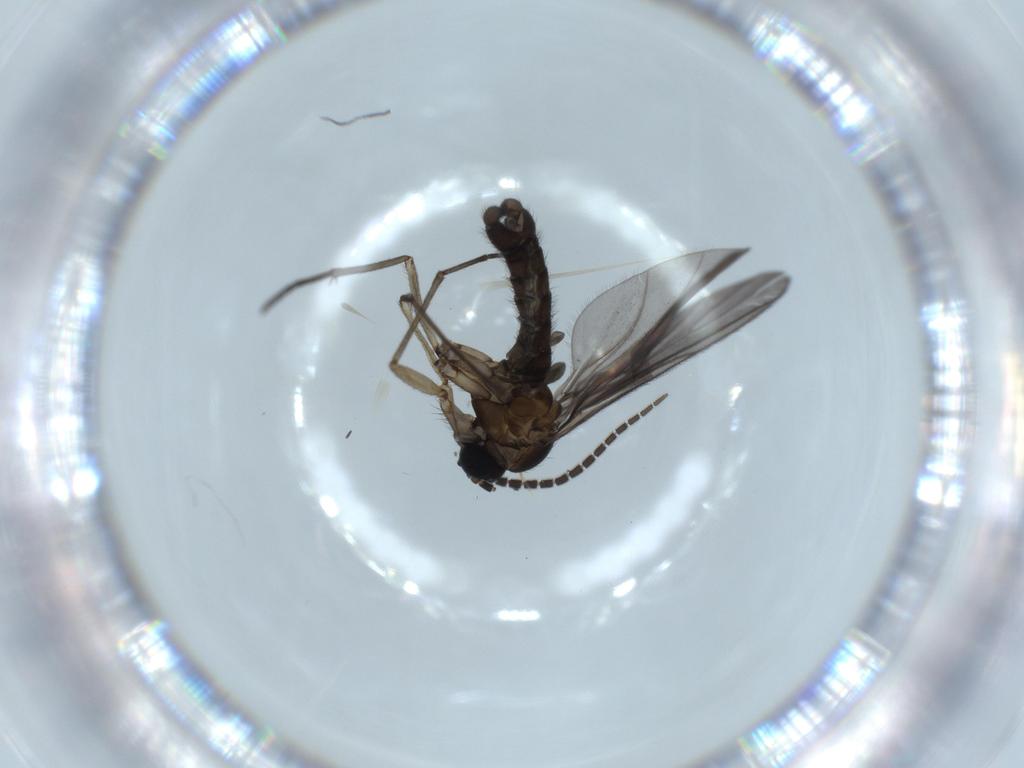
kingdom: Animalia
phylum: Arthropoda
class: Insecta
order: Diptera
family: Sciaridae
